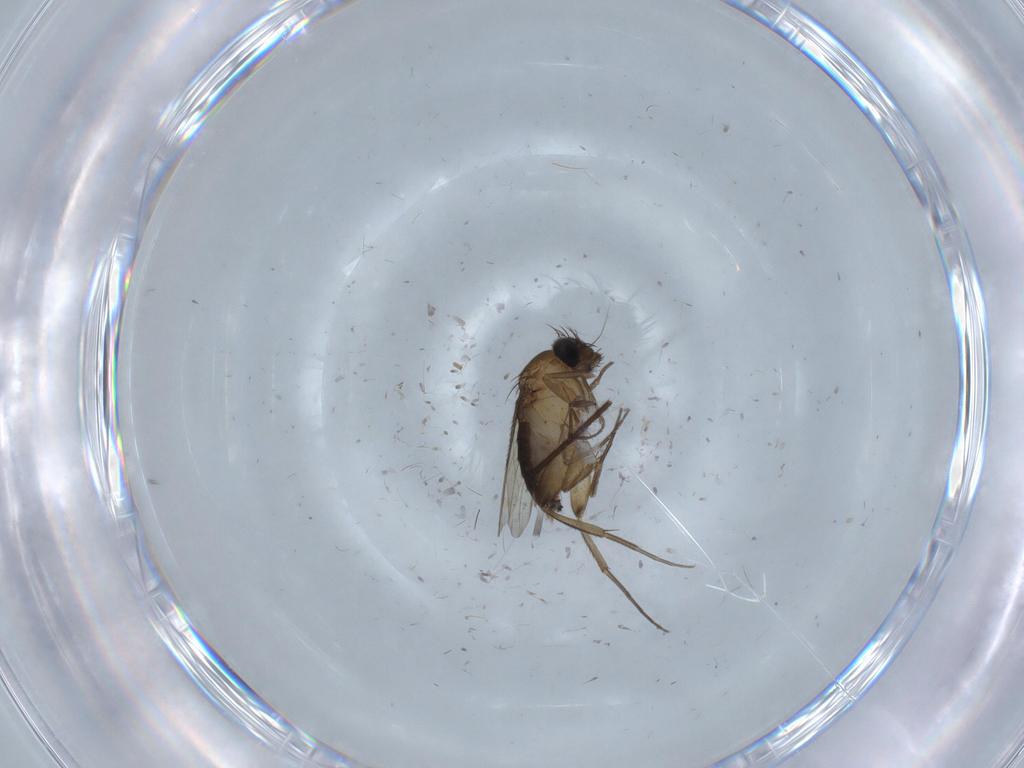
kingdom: Animalia
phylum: Arthropoda
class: Insecta
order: Diptera
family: Phoridae
